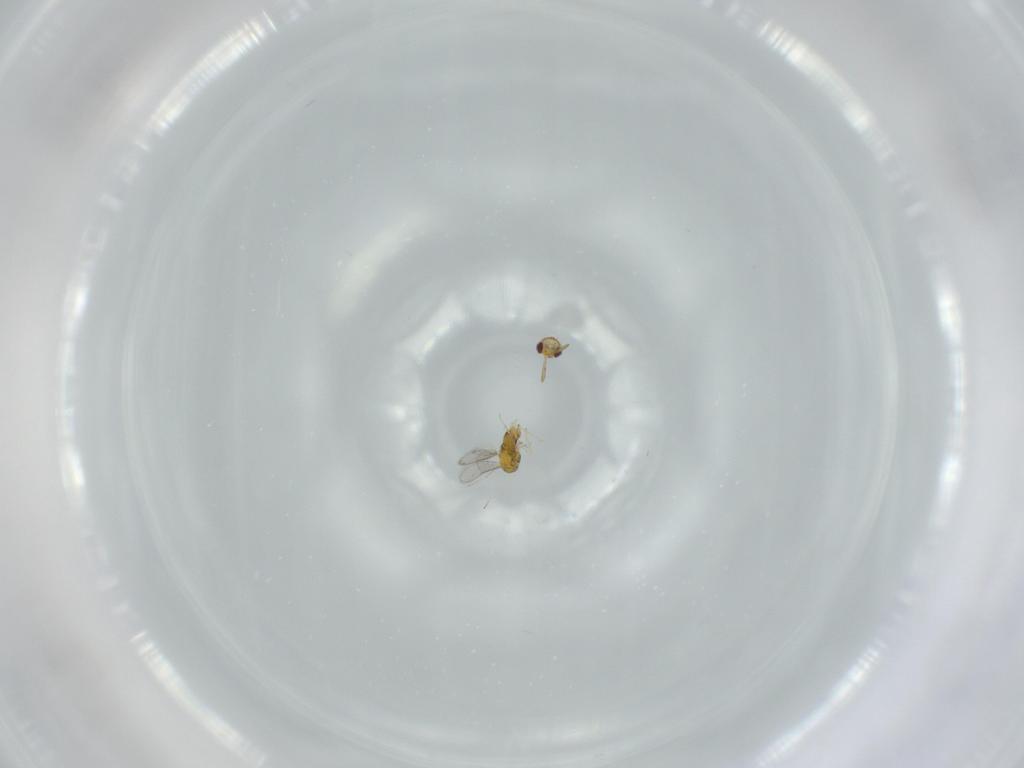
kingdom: Animalia
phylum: Arthropoda
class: Insecta
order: Hymenoptera
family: Aphelinidae
